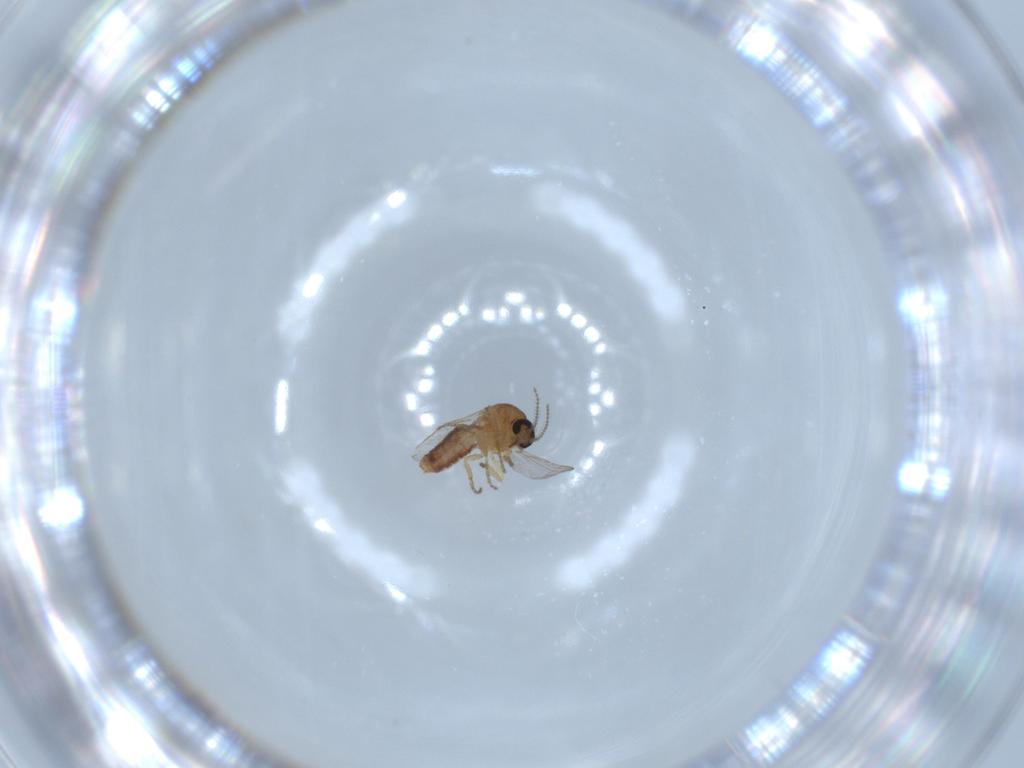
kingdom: Animalia
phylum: Arthropoda
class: Insecta
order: Diptera
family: Ceratopogonidae
